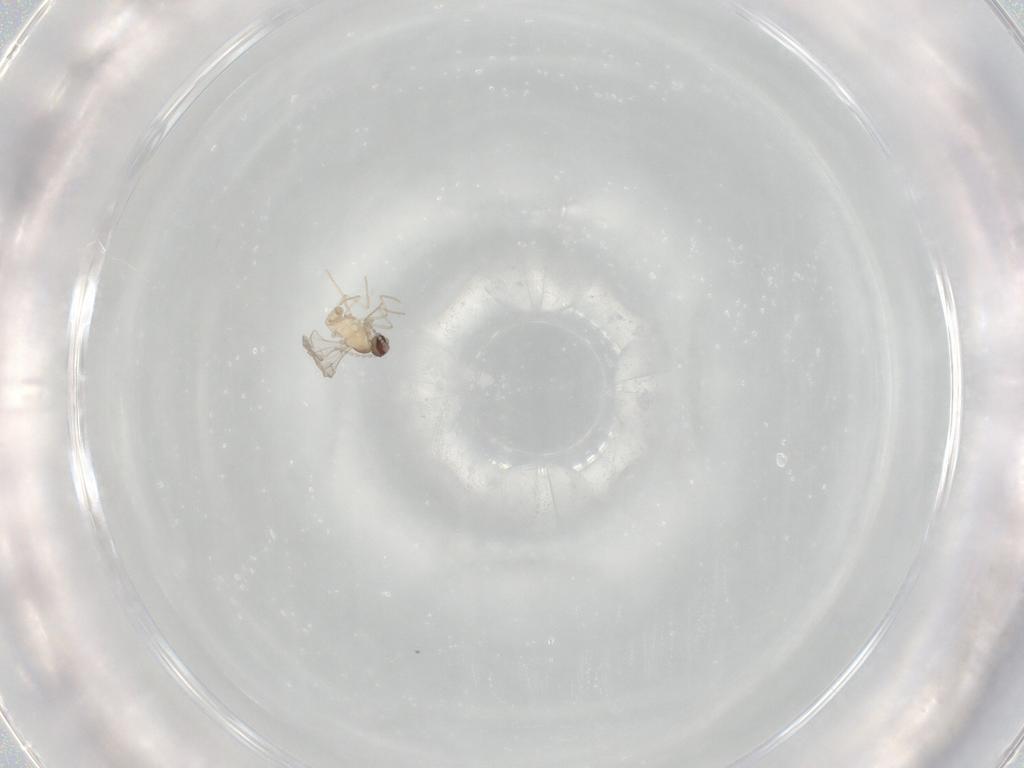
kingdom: Animalia
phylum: Arthropoda
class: Insecta
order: Diptera
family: Cecidomyiidae
